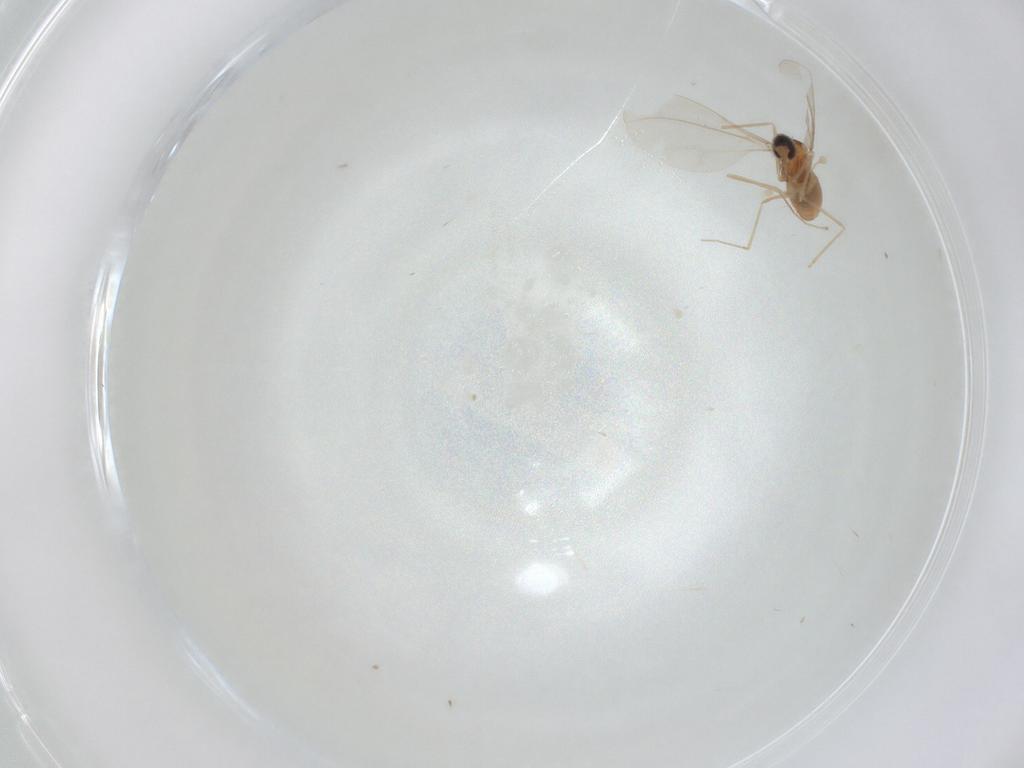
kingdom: Animalia
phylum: Arthropoda
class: Insecta
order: Diptera
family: Cecidomyiidae
